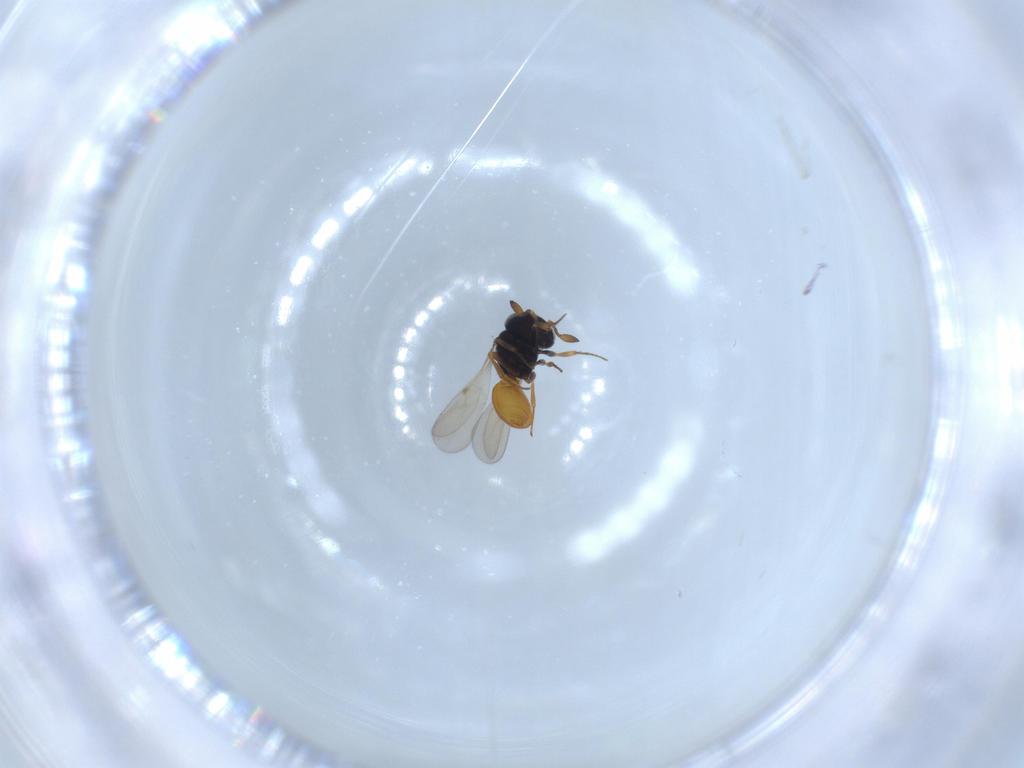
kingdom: Animalia
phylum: Arthropoda
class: Insecta
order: Hymenoptera
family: Scelionidae
